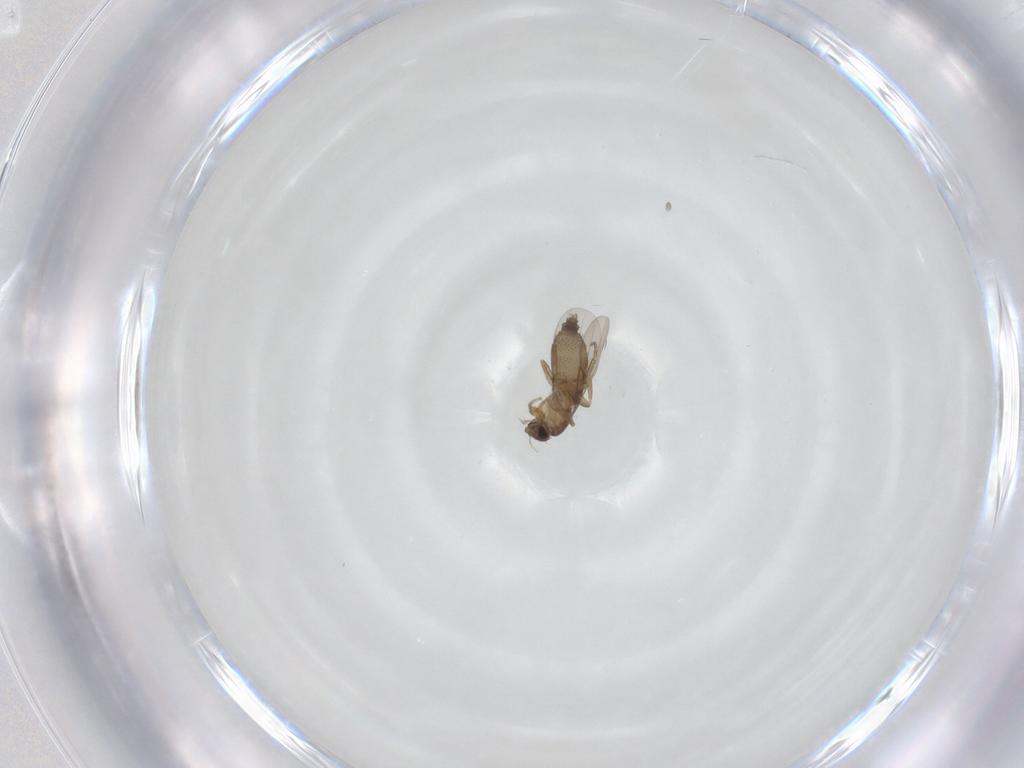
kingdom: Animalia
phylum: Arthropoda
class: Insecta
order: Diptera
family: Phoridae
